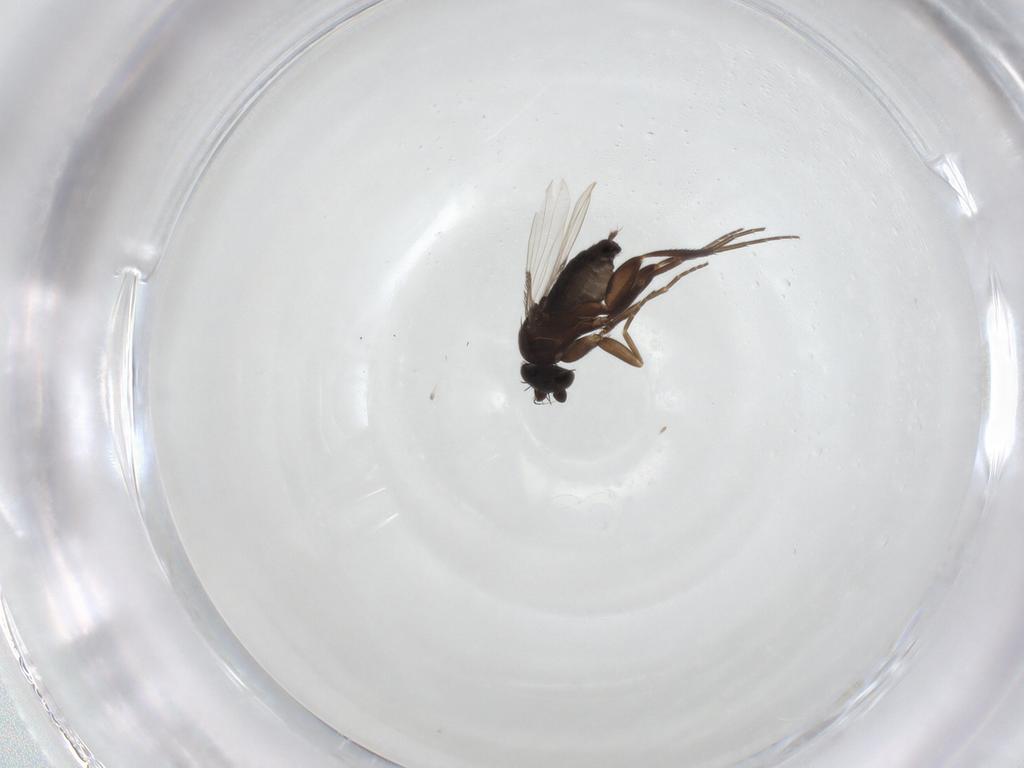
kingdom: Animalia
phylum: Arthropoda
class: Insecta
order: Diptera
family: Phoridae
